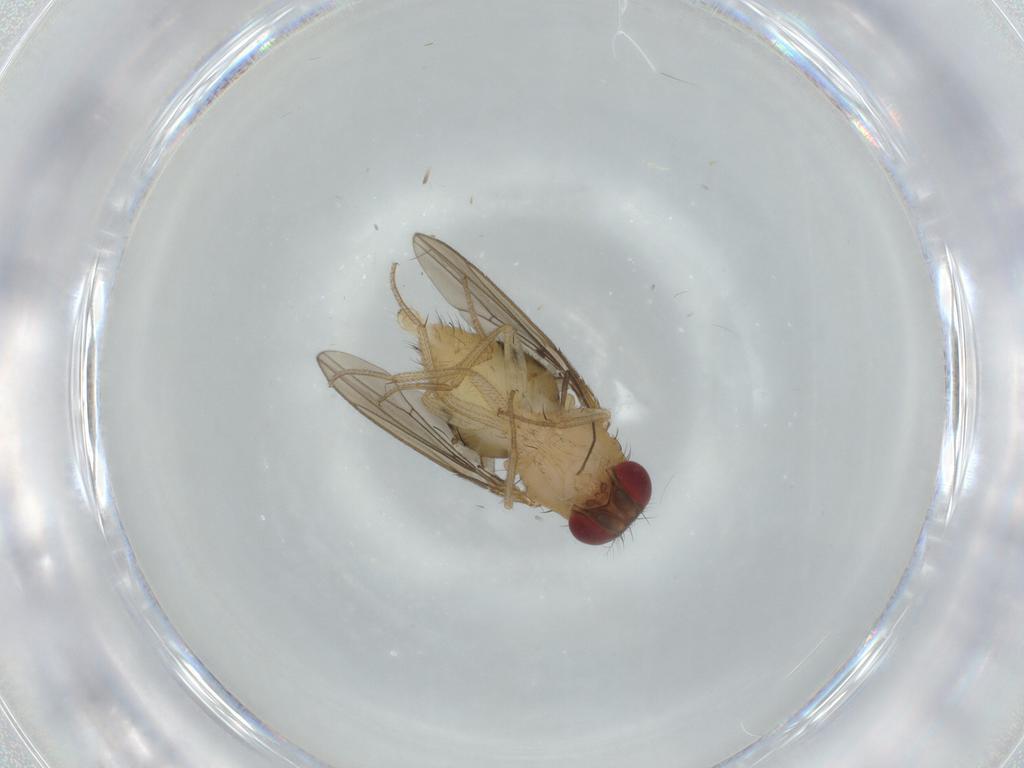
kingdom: Animalia
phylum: Arthropoda
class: Insecta
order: Diptera
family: Drosophilidae
